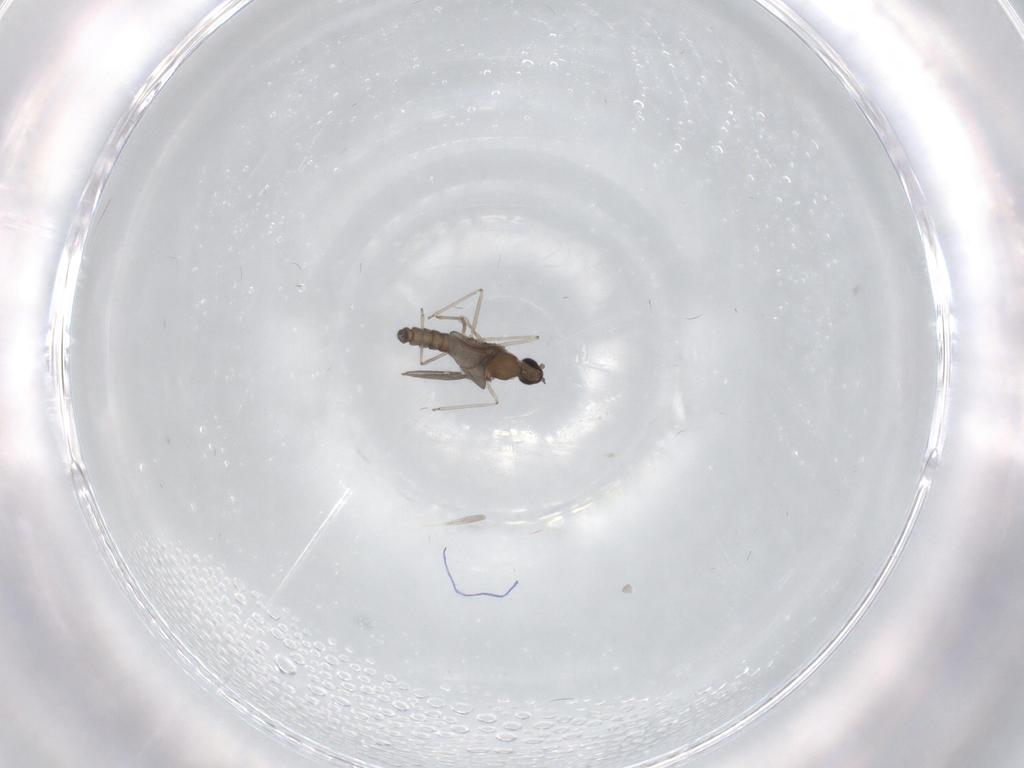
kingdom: Animalia
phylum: Arthropoda
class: Insecta
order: Diptera
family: Cecidomyiidae
